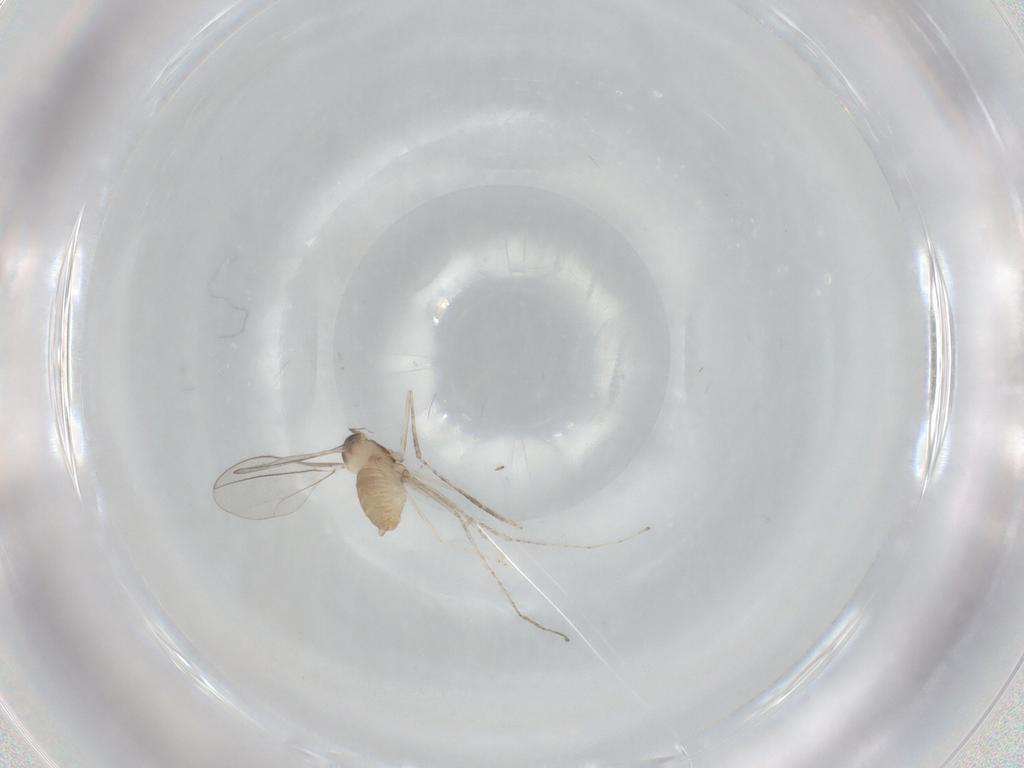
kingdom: Animalia
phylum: Arthropoda
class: Insecta
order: Diptera
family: Cecidomyiidae
